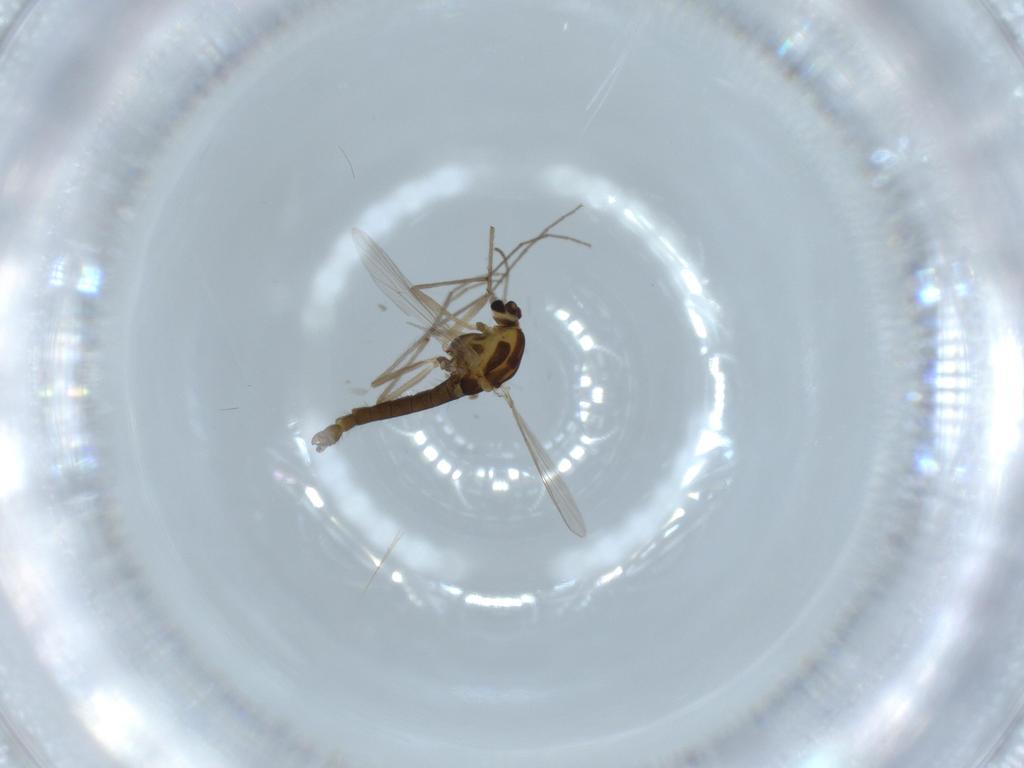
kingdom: Animalia
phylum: Arthropoda
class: Insecta
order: Diptera
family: Chironomidae
